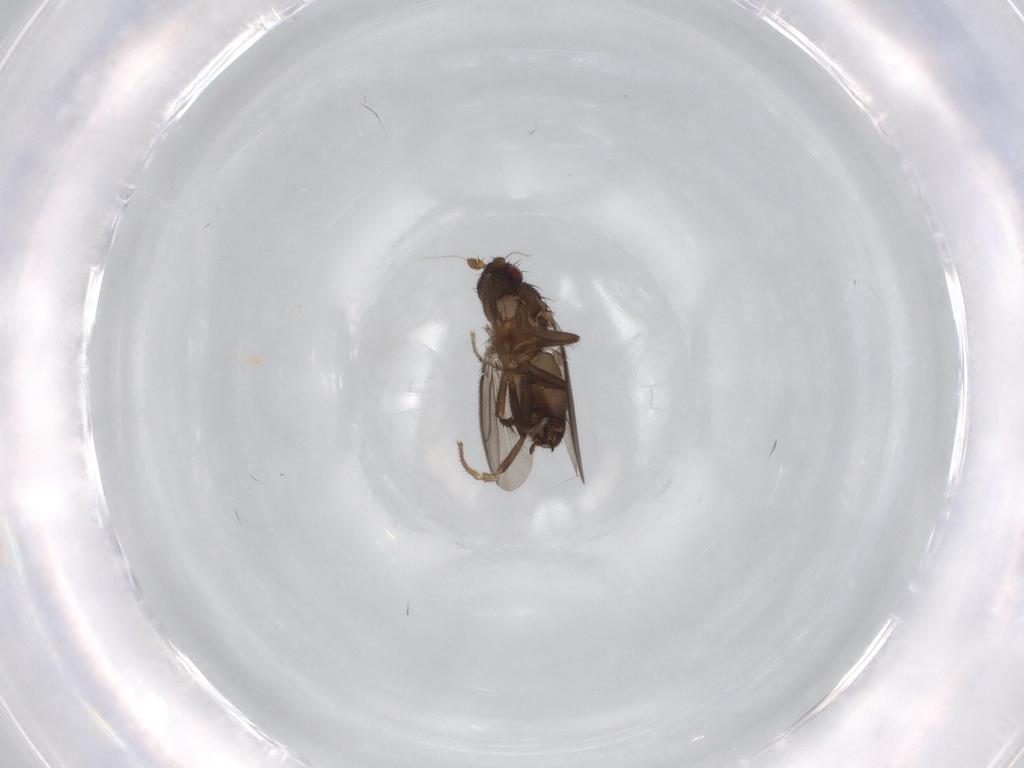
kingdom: Animalia
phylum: Arthropoda
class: Insecta
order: Diptera
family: Sphaeroceridae
